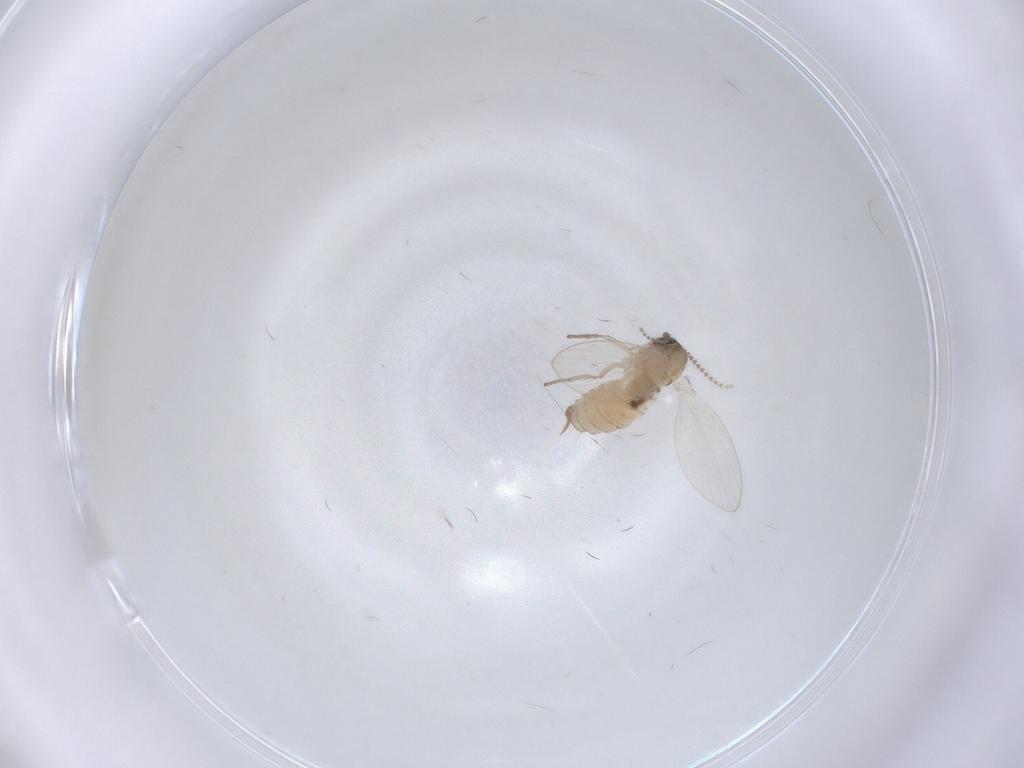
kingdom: Animalia
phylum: Arthropoda
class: Insecta
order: Diptera
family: Psychodidae
